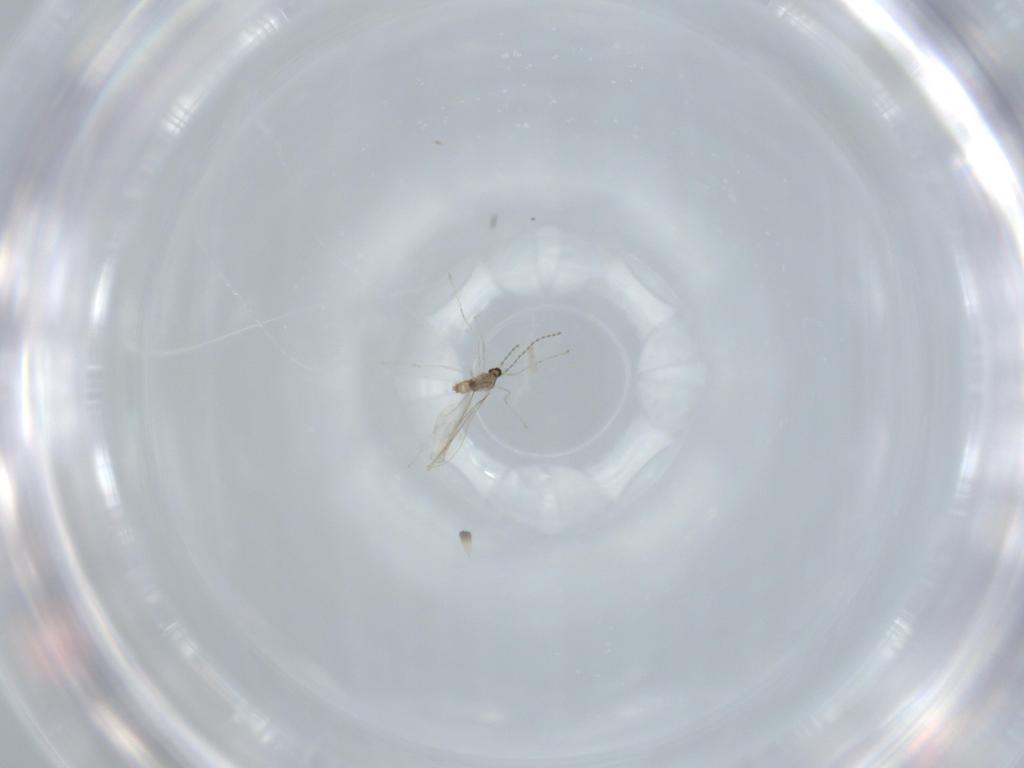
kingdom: Animalia
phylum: Arthropoda
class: Insecta
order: Diptera
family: Cecidomyiidae
